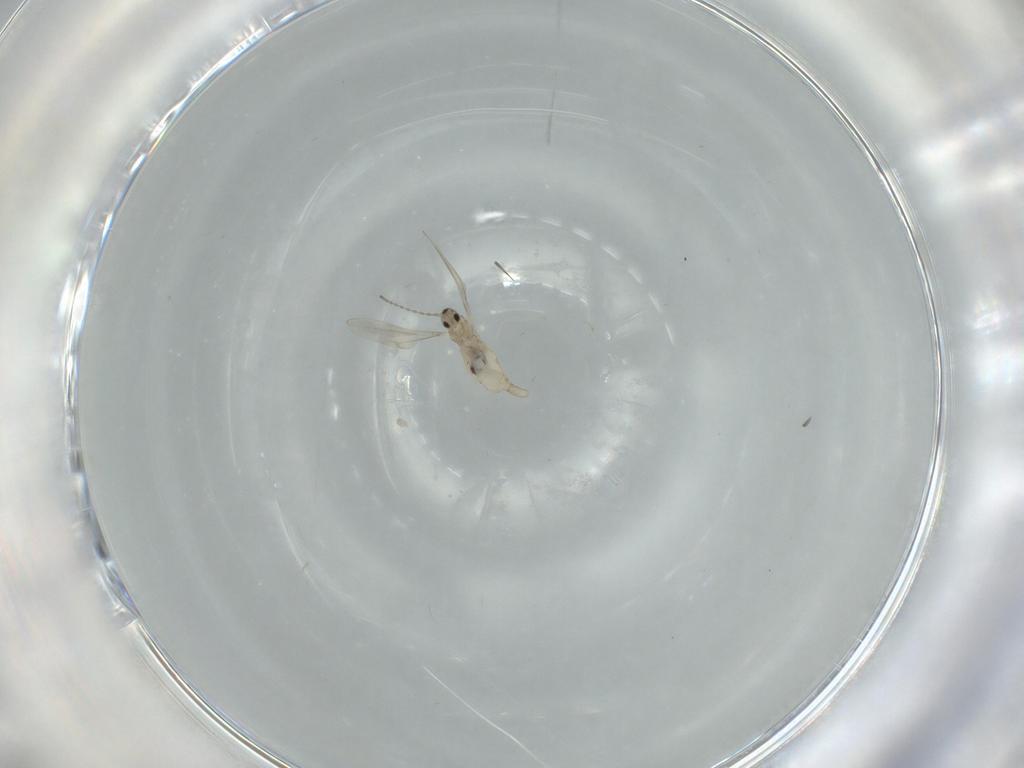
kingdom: Animalia
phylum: Arthropoda
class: Insecta
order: Diptera
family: Cecidomyiidae
